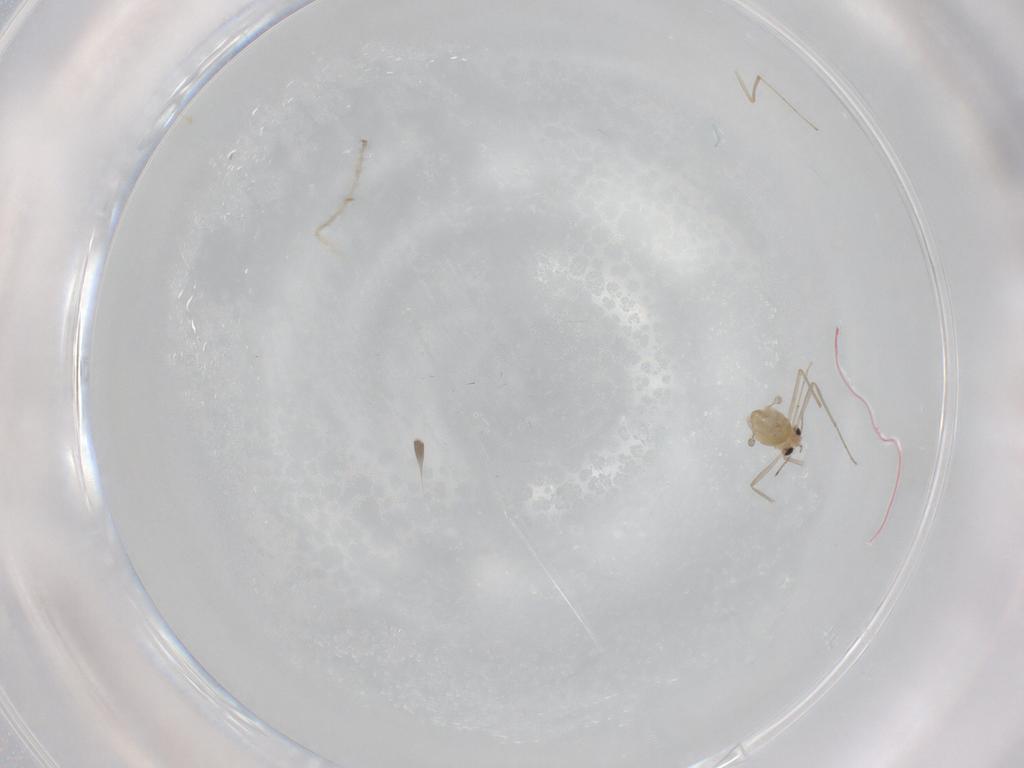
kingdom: Animalia
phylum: Arthropoda
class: Insecta
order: Diptera
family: Chironomidae
